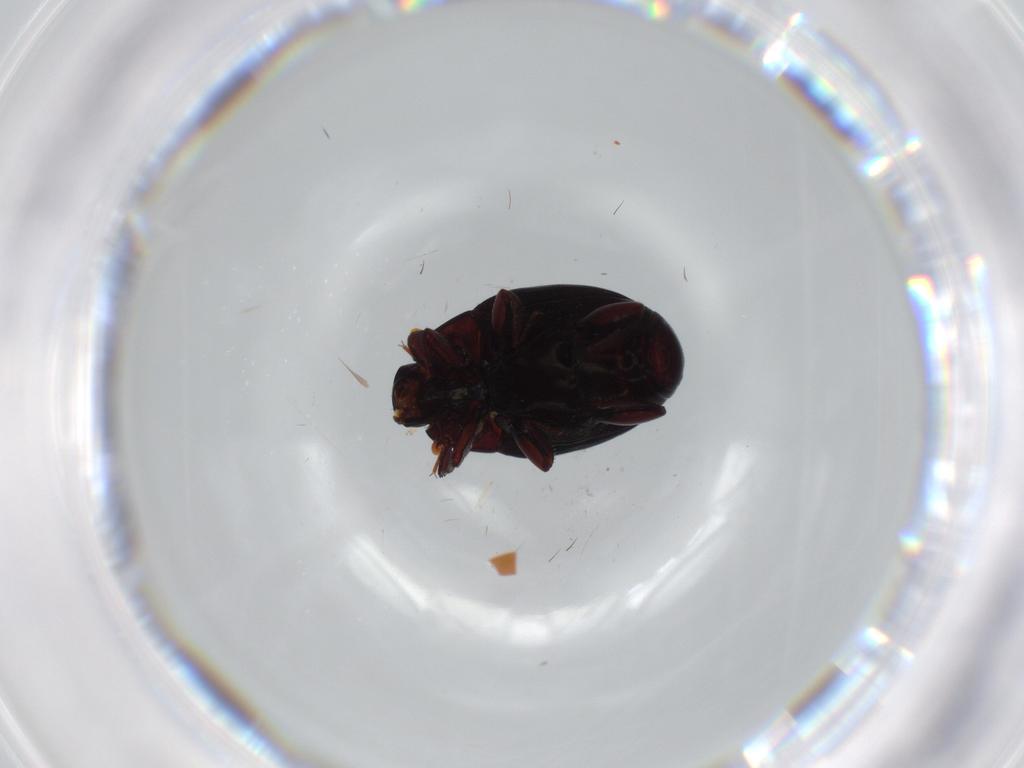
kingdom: Animalia
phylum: Arthropoda
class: Insecta
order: Coleoptera
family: Histeridae
